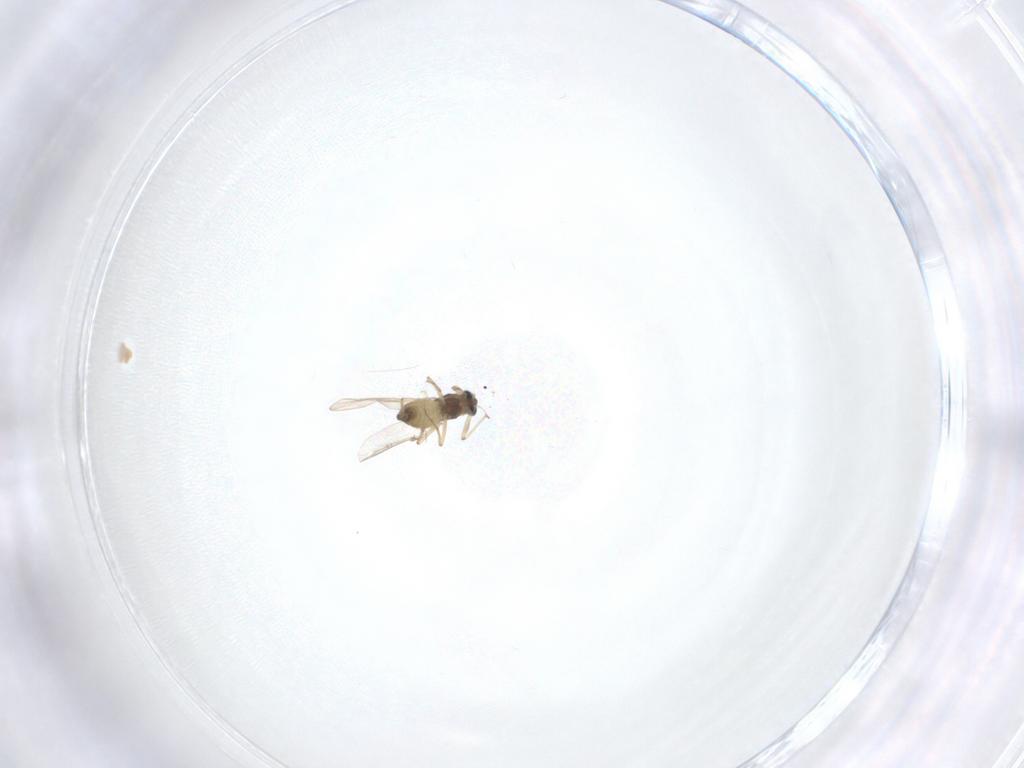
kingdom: Animalia
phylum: Arthropoda
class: Insecta
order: Diptera
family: Chironomidae
